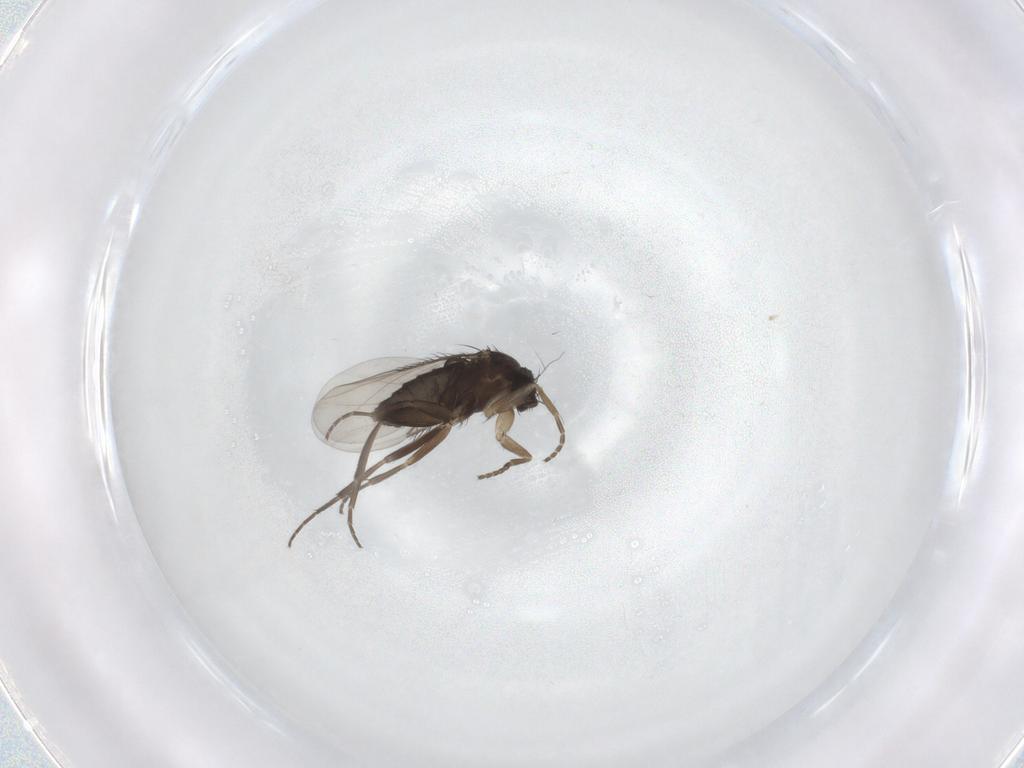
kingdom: Animalia
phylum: Arthropoda
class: Insecta
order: Diptera
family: Phoridae
